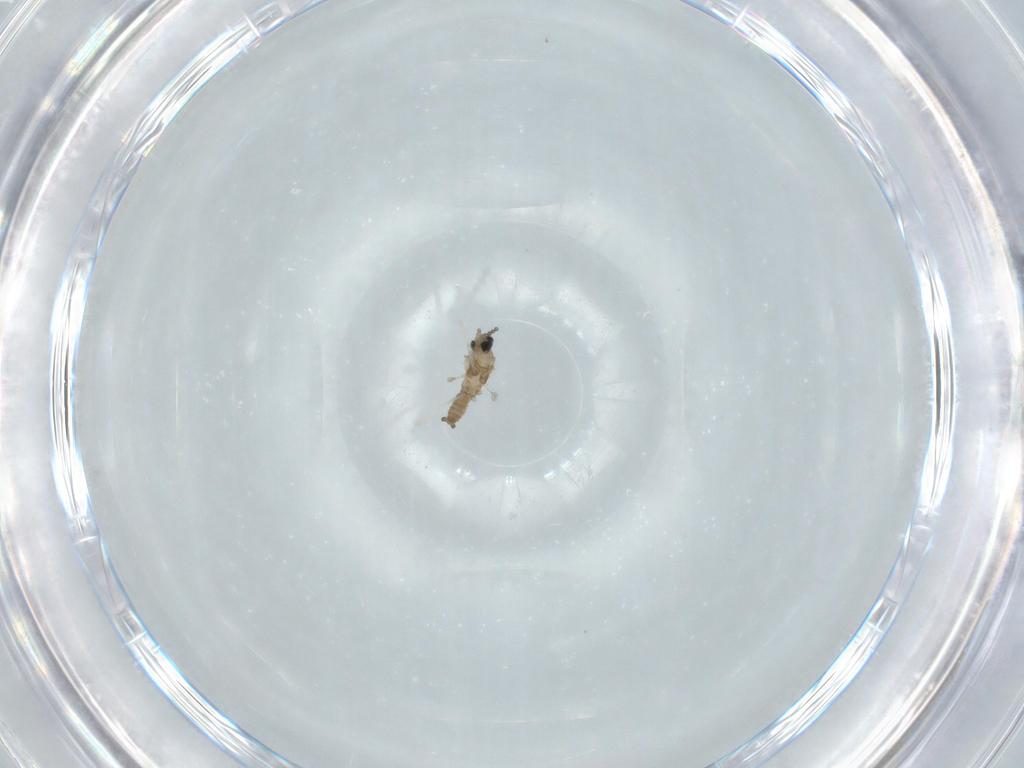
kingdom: Animalia
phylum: Arthropoda
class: Insecta
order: Diptera
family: Cecidomyiidae
